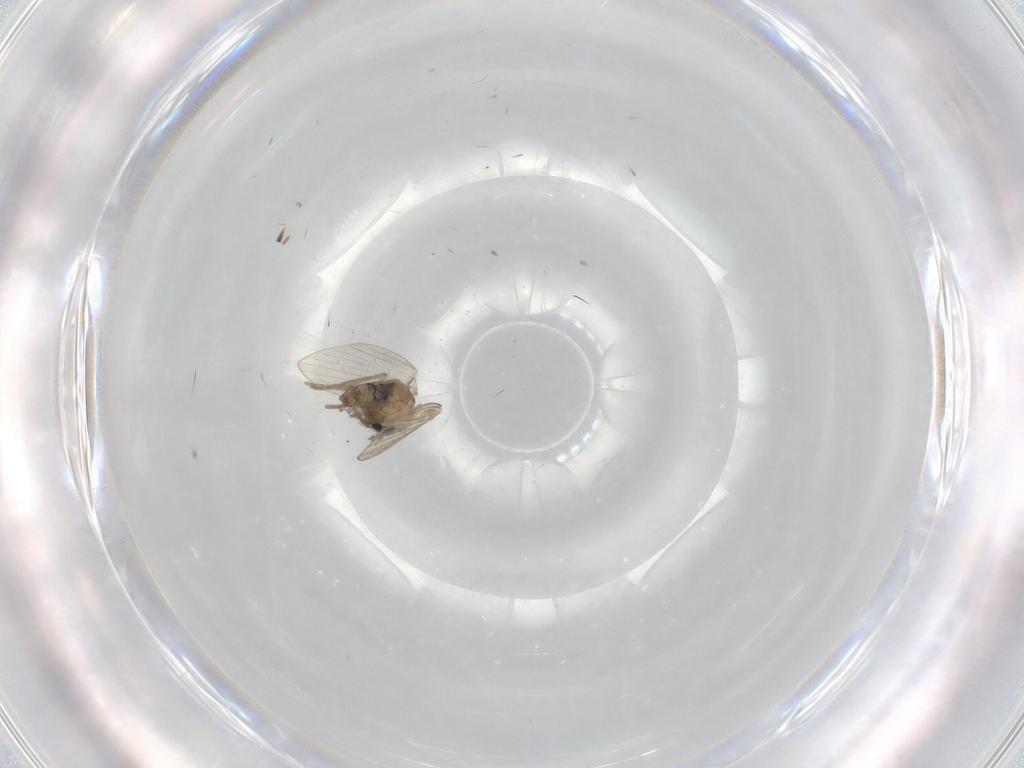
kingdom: Animalia
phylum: Arthropoda
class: Insecta
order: Diptera
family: Psychodidae
